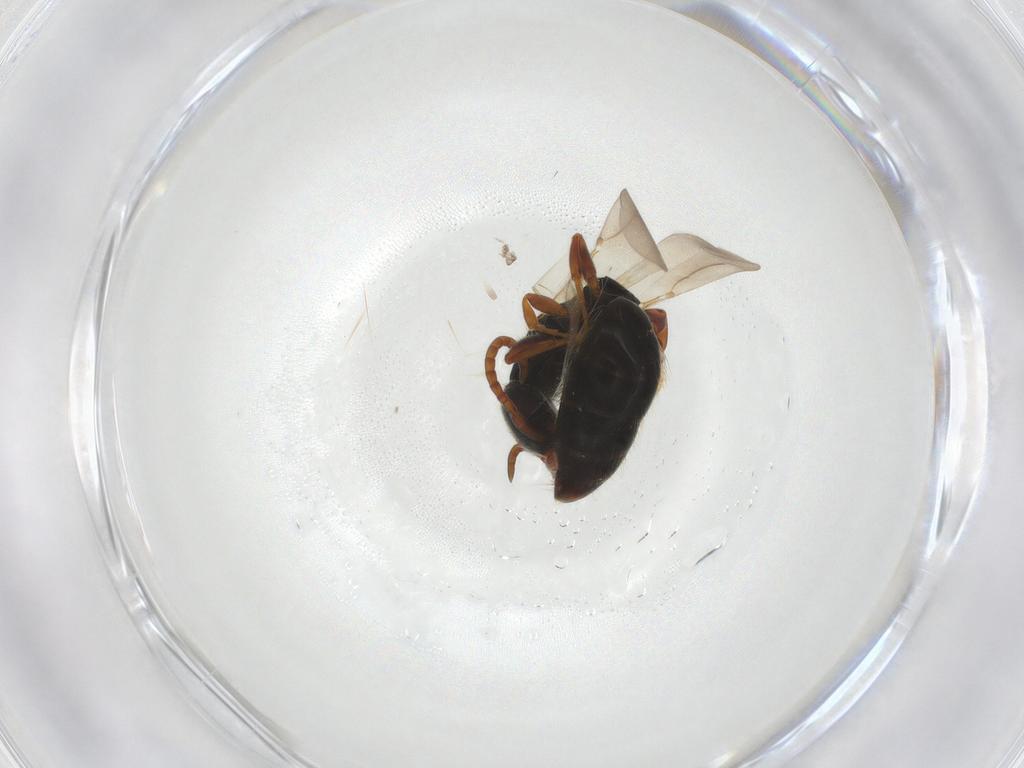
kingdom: Animalia
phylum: Arthropoda
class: Insecta
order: Hymenoptera
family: Bethylidae
